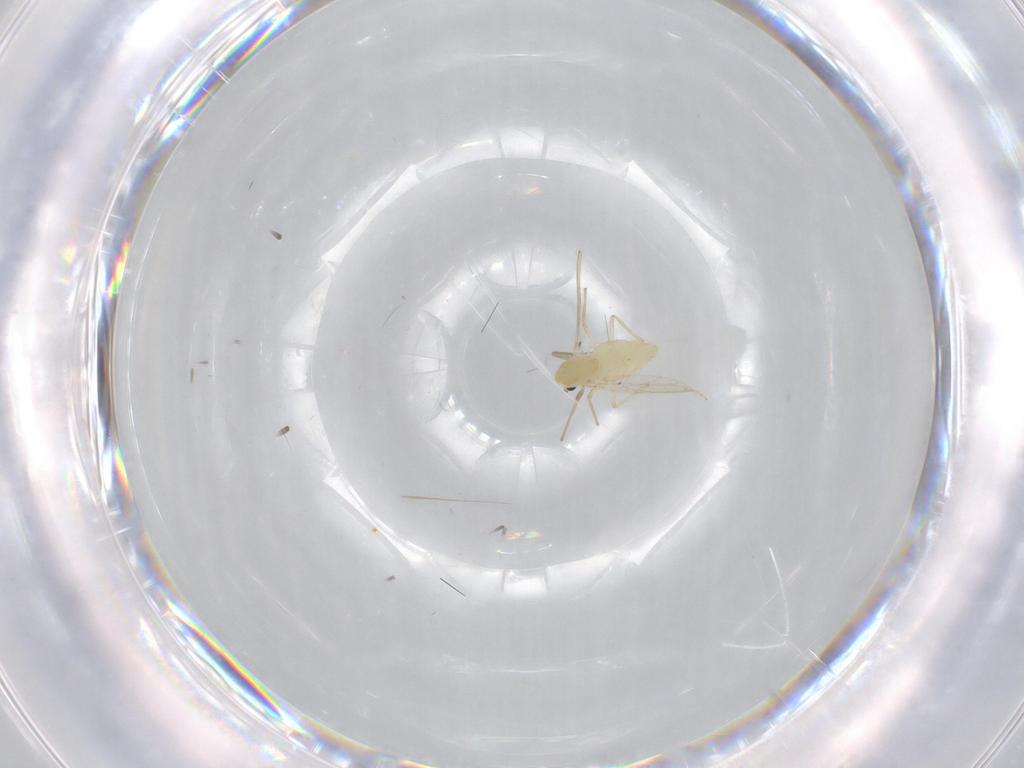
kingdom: Animalia
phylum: Arthropoda
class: Insecta
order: Diptera
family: Chironomidae
